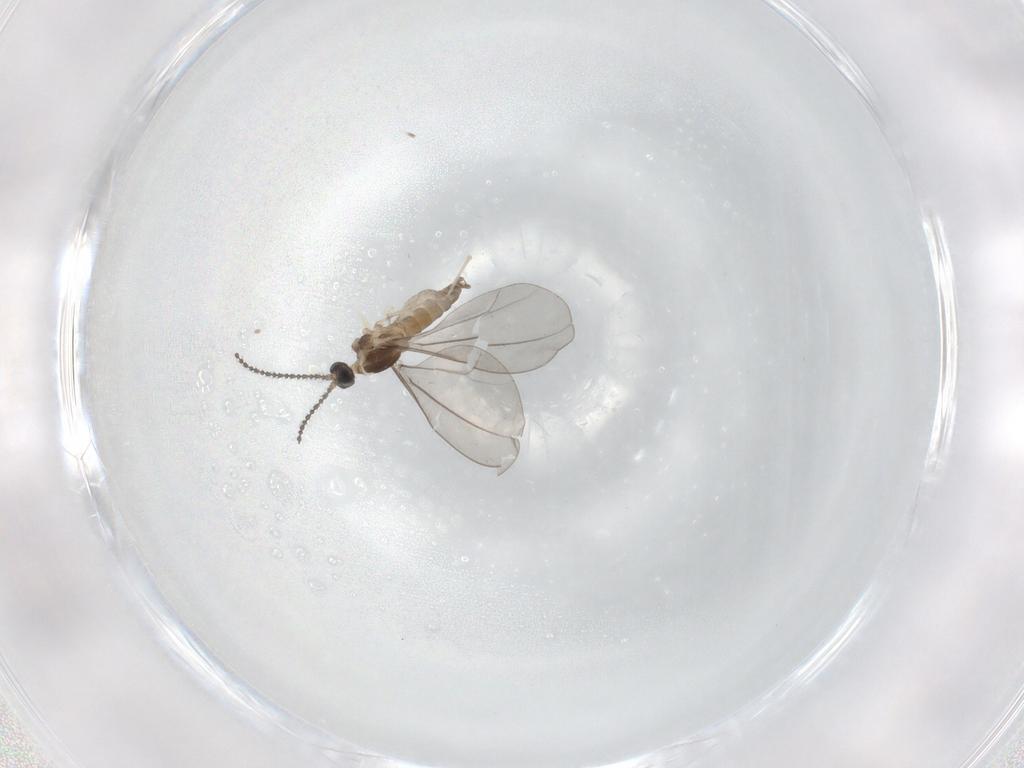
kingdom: Animalia
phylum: Arthropoda
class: Insecta
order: Diptera
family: Cecidomyiidae
